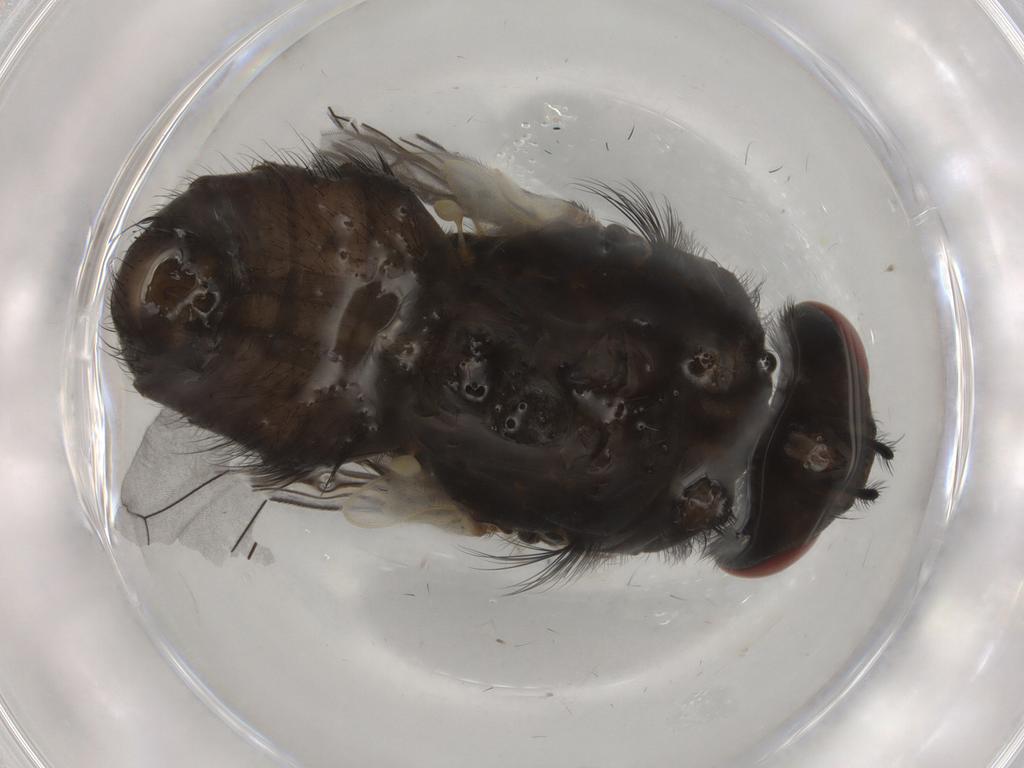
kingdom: Animalia
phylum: Arthropoda
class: Insecta
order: Diptera
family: Muscidae
